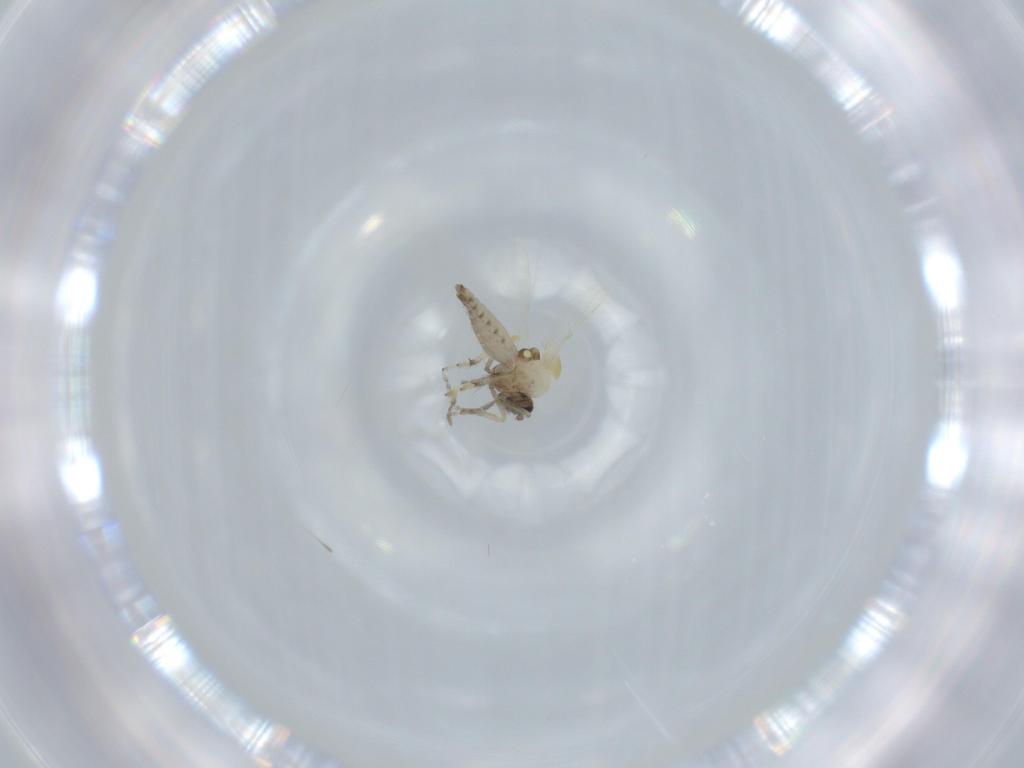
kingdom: Animalia
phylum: Arthropoda
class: Insecta
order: Diptera
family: Ceratopogonidae
